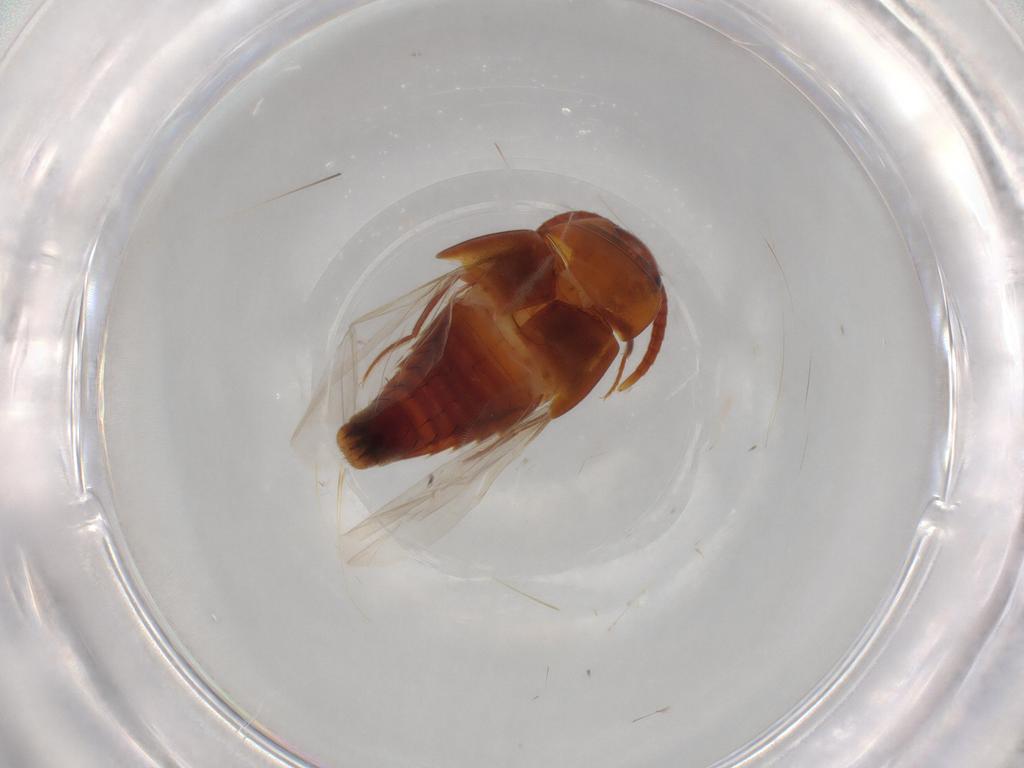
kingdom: Animalia
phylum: Arthropoda
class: Insecta
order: Coleoptera
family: Staphylinidae
